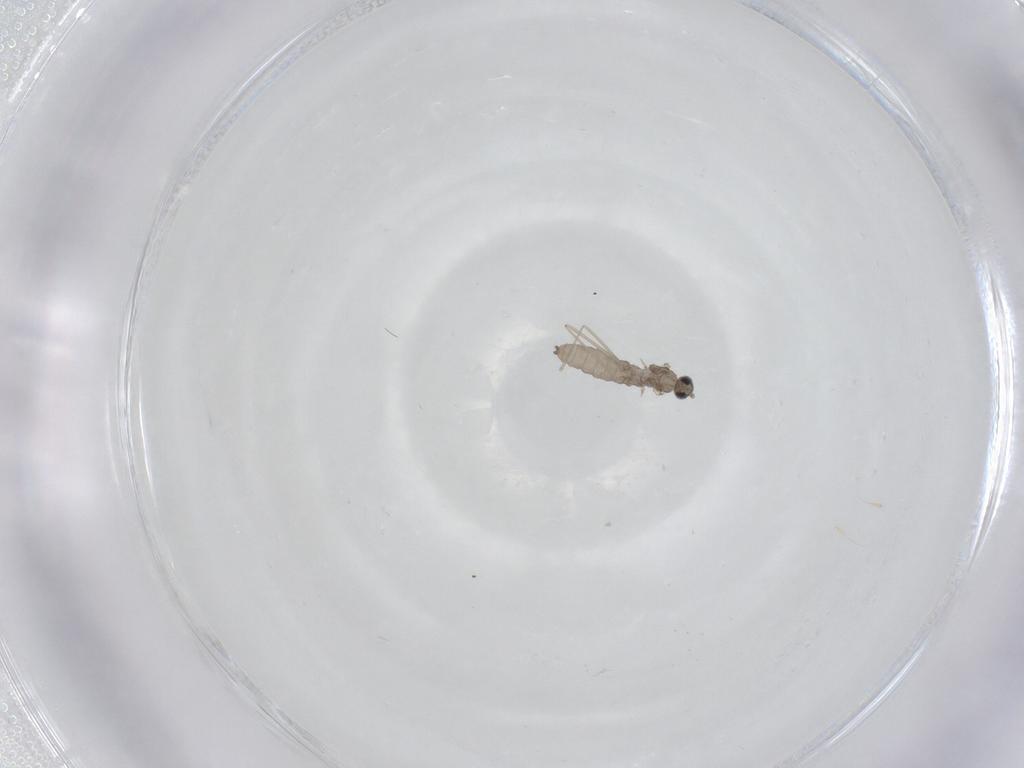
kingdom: Animalia
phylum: Arthropoda
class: Insecta
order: Diptera
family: Cecidomyiidae
